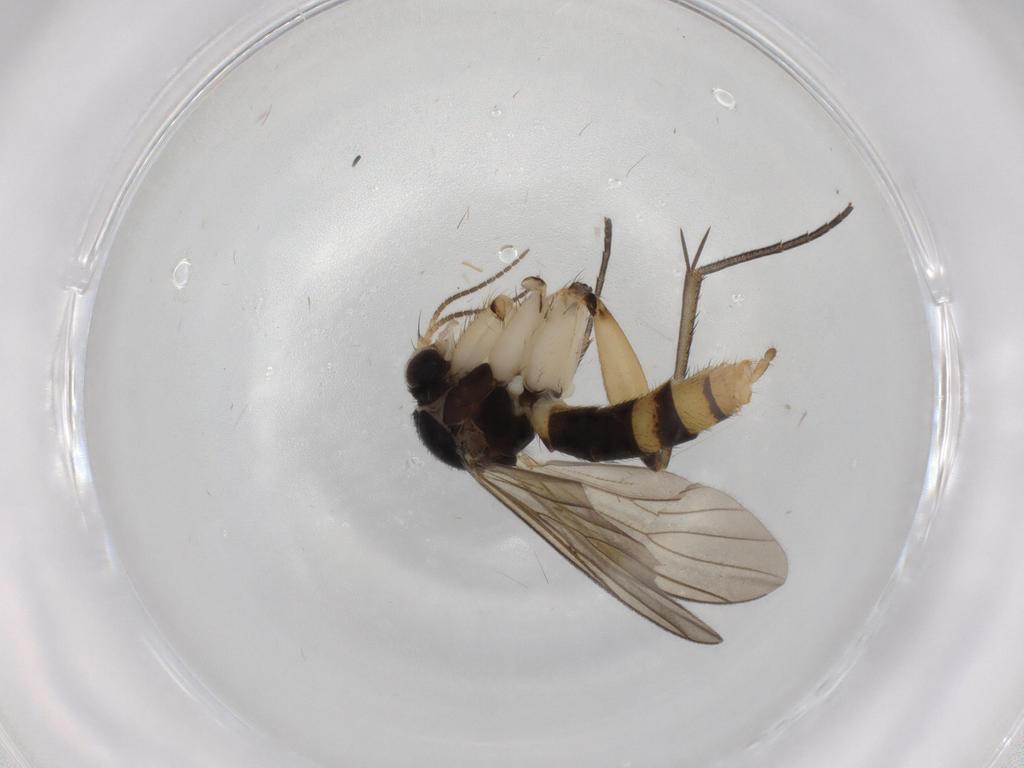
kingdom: Animalia
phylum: Arthropoda
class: Insecta
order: Diptera
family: Mycetophilidae
